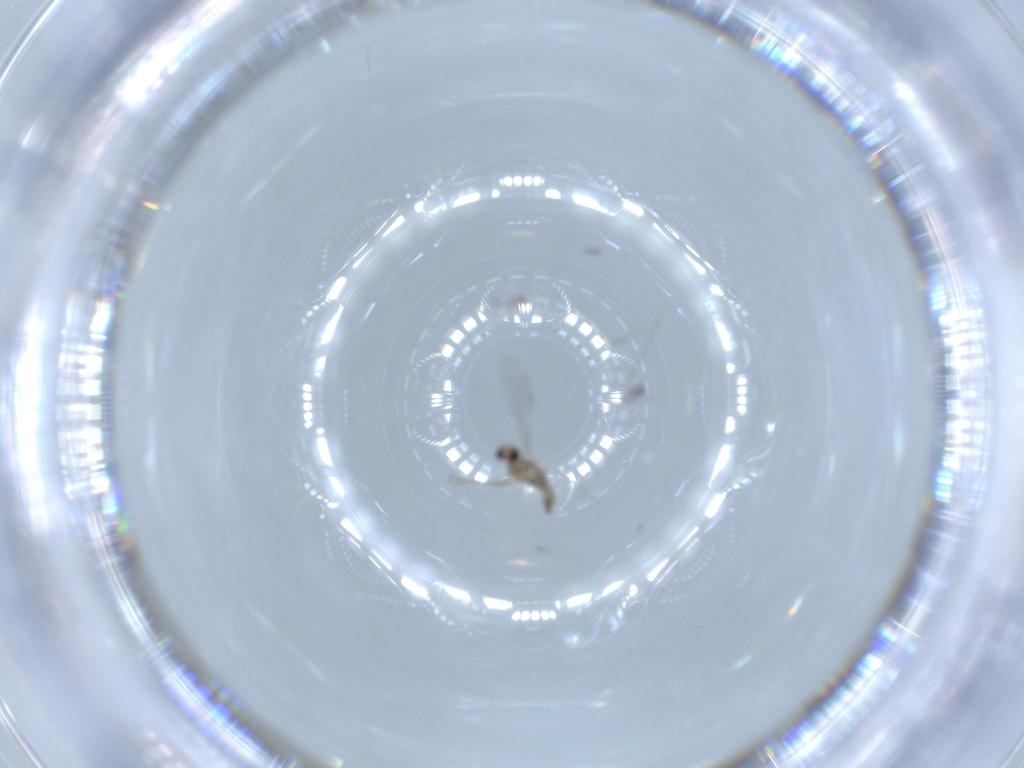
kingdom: Animalia
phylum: Arthropoda
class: Insecta
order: Diptera
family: Cecidomyiidae
